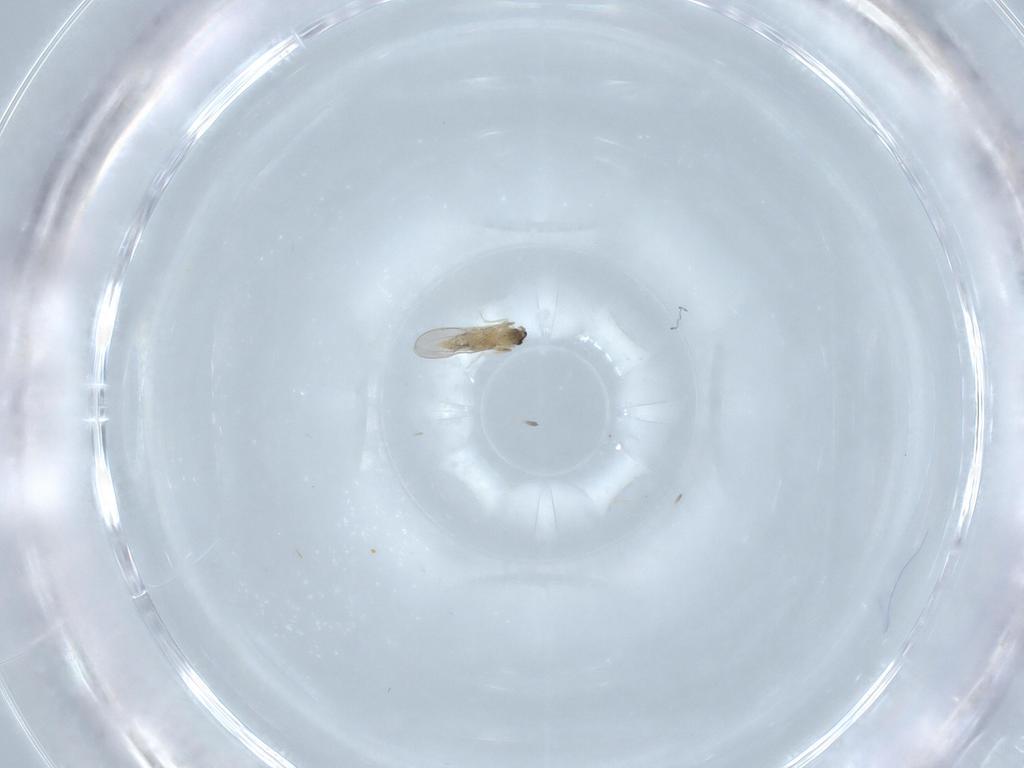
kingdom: Animalia
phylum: Arthropoda
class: Insecta
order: Diptera
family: Cecidomyiidae
